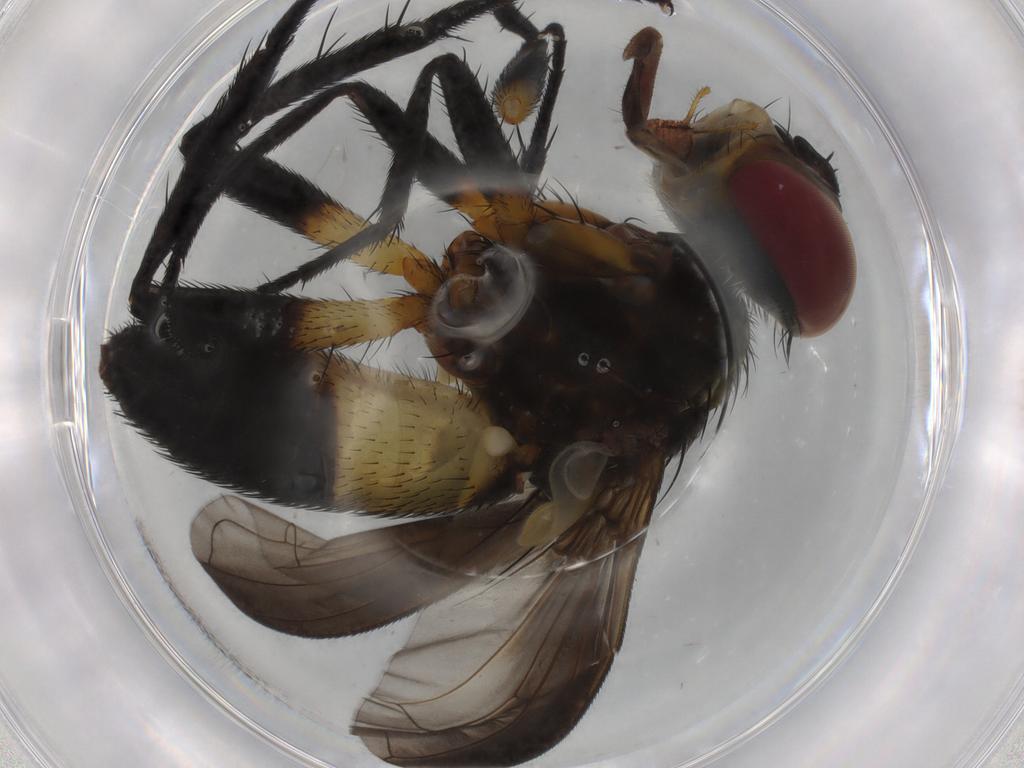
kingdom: Animalia
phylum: Arthropoda
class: Insecta
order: Diptera
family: Tachinidae
